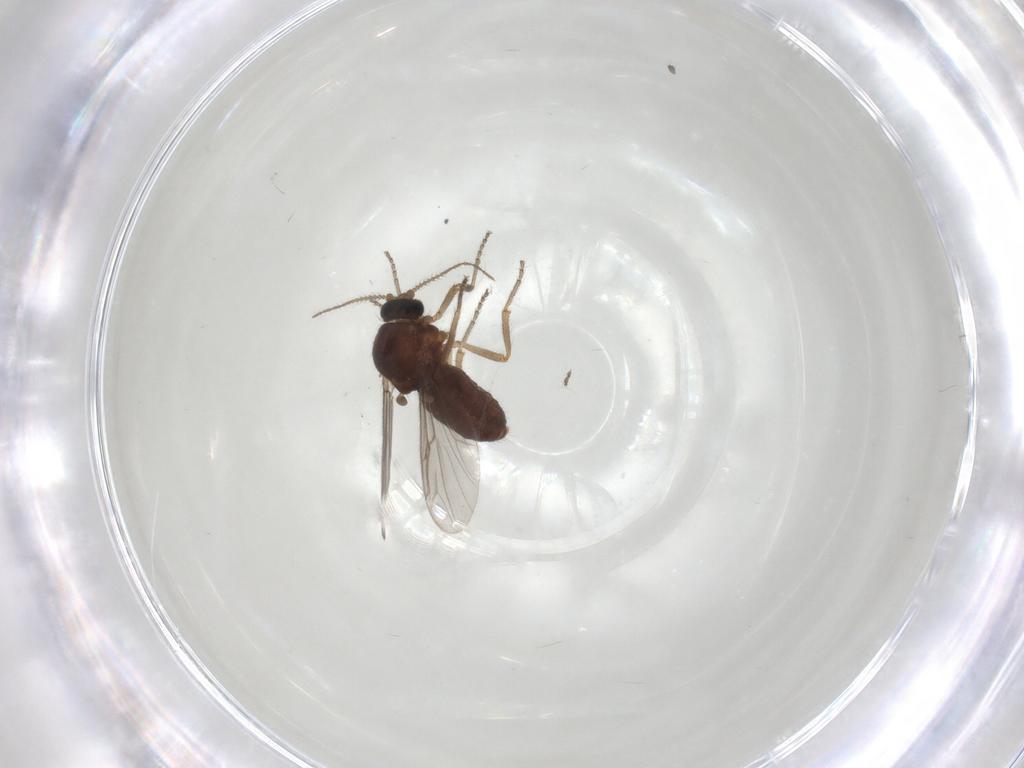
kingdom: Animalia
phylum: Arthropoda
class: Insecta
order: Diptera
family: Ceratopogonidae
